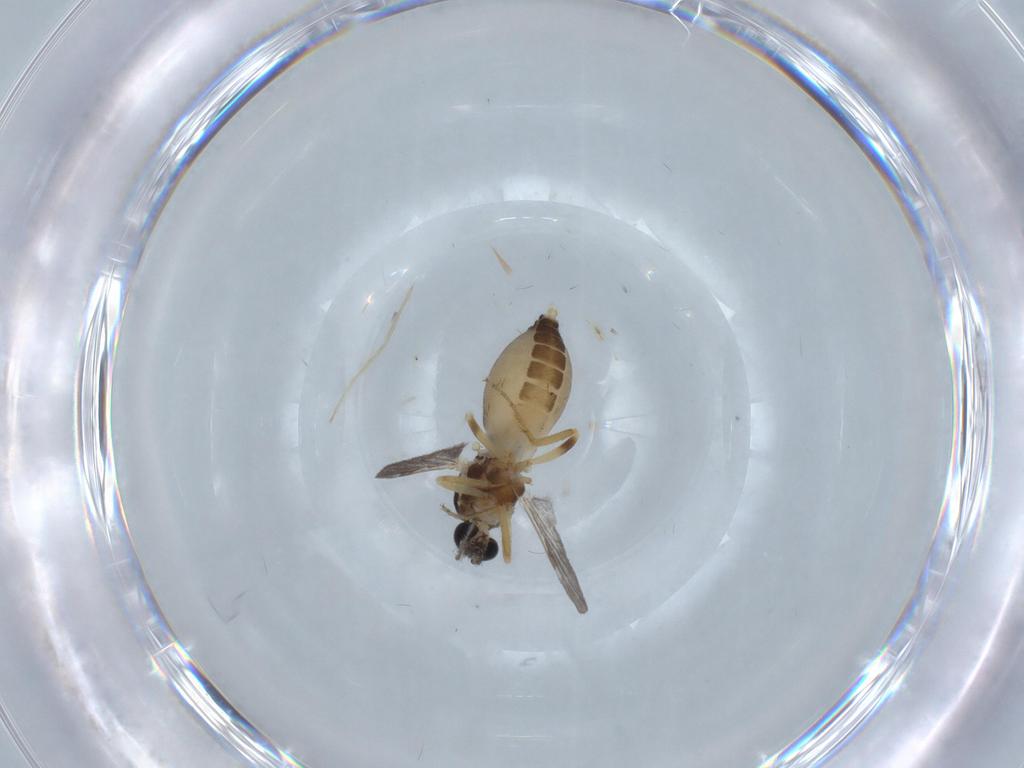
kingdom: Animalia
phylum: Arthropoda
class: Insecta
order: Diptera
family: Ceratopogonidae
